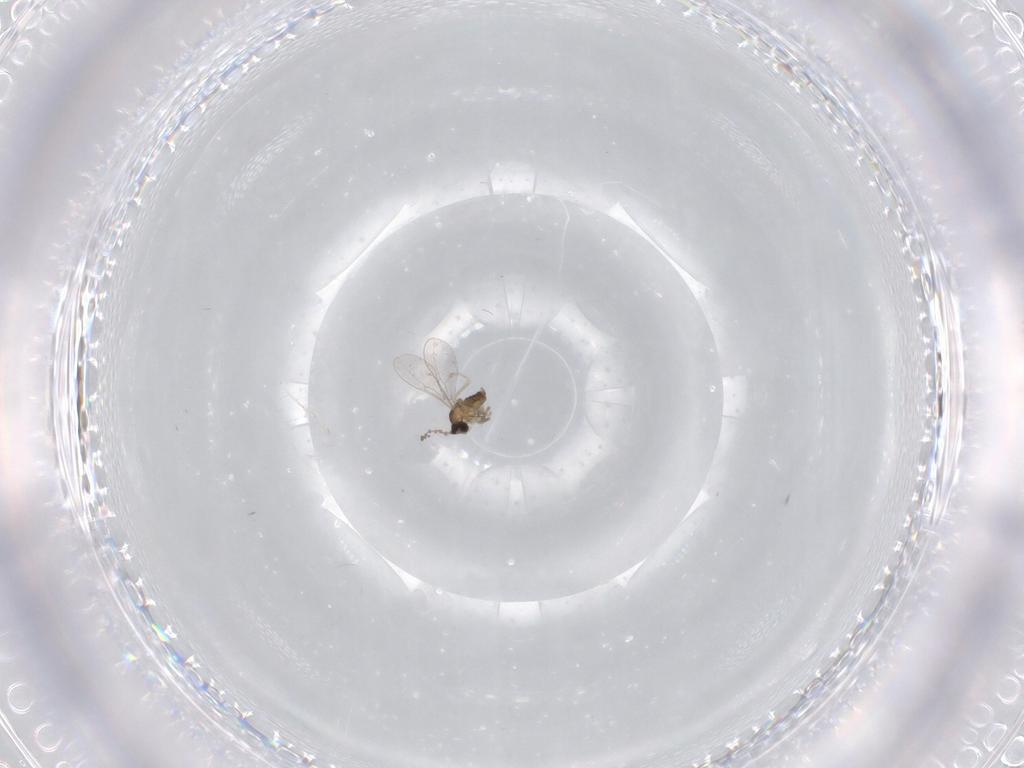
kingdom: Animalia
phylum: Arthropoda
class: Insecta
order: Diptera
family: Cecidomyiidae
